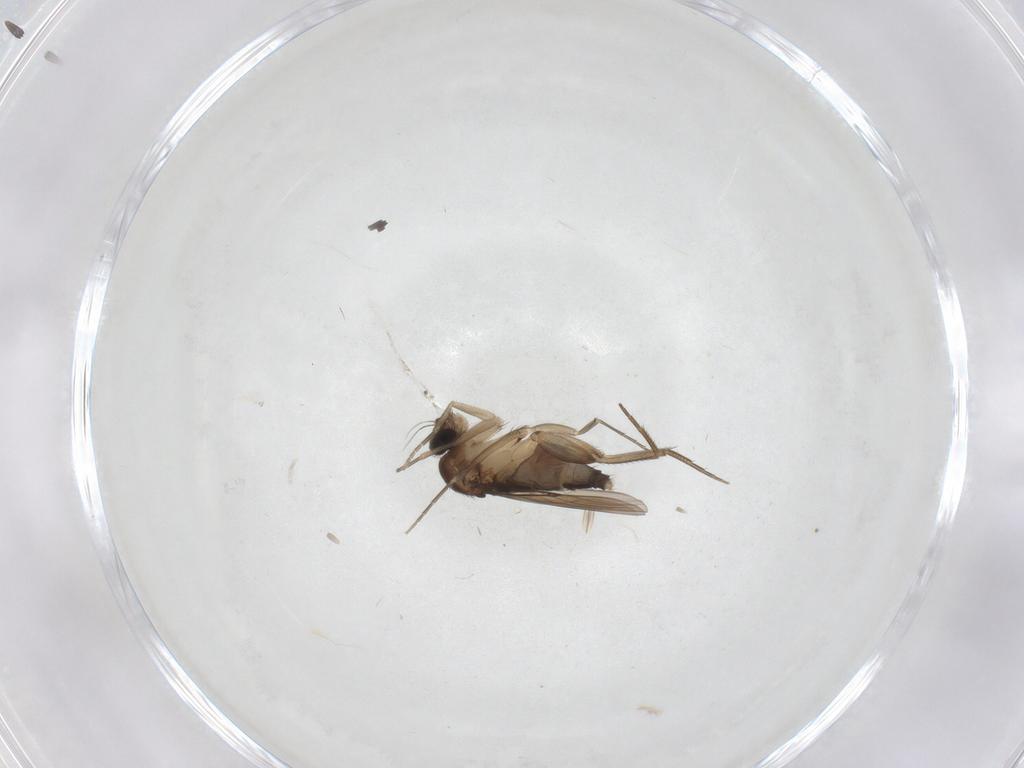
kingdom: Animalia
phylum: Arthropoda
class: Insecta
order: Diptera
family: Phoridae
